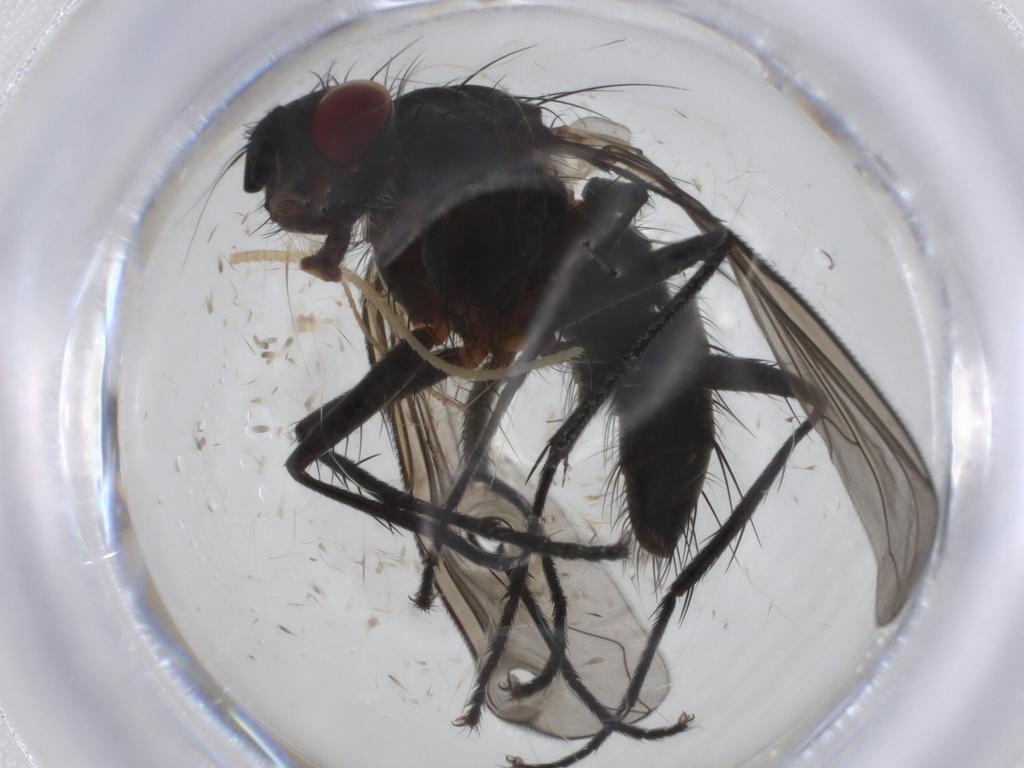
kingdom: Animalia
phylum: Arthropoda
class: Insecta
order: Diptera
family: Tachinidae
